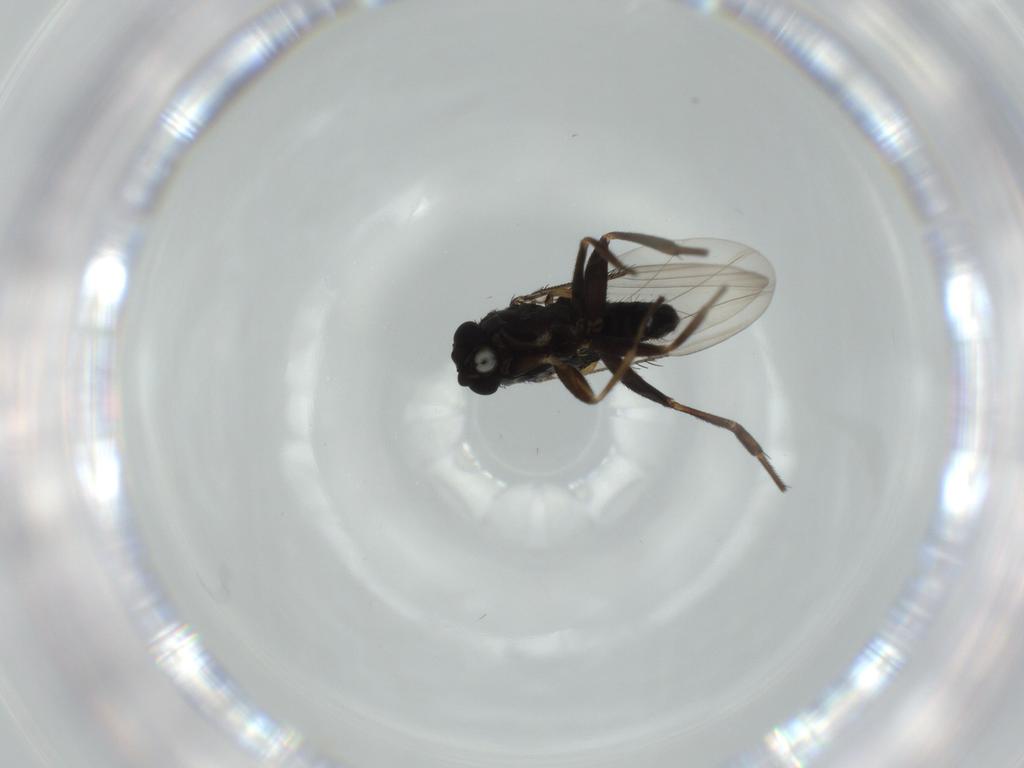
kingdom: Animalia
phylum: Arthropoda
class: Insecta
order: Diptera
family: Phoridae
